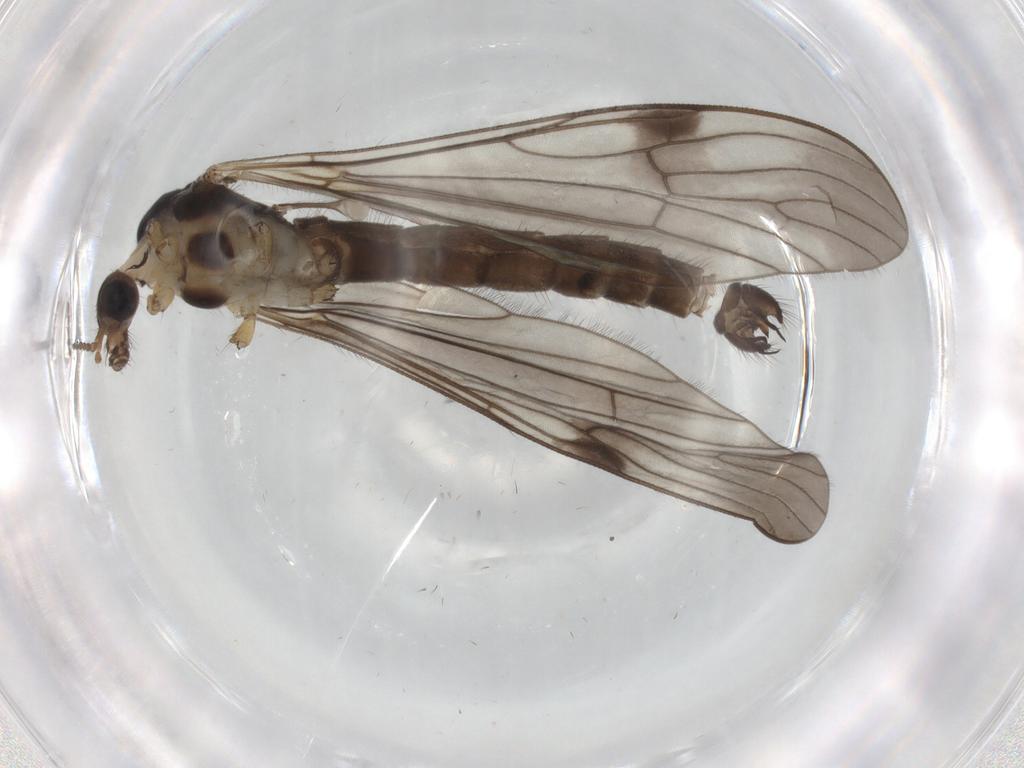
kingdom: Animalia
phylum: Arthropoda
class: Insecta
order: Diptera
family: Limoniidae
